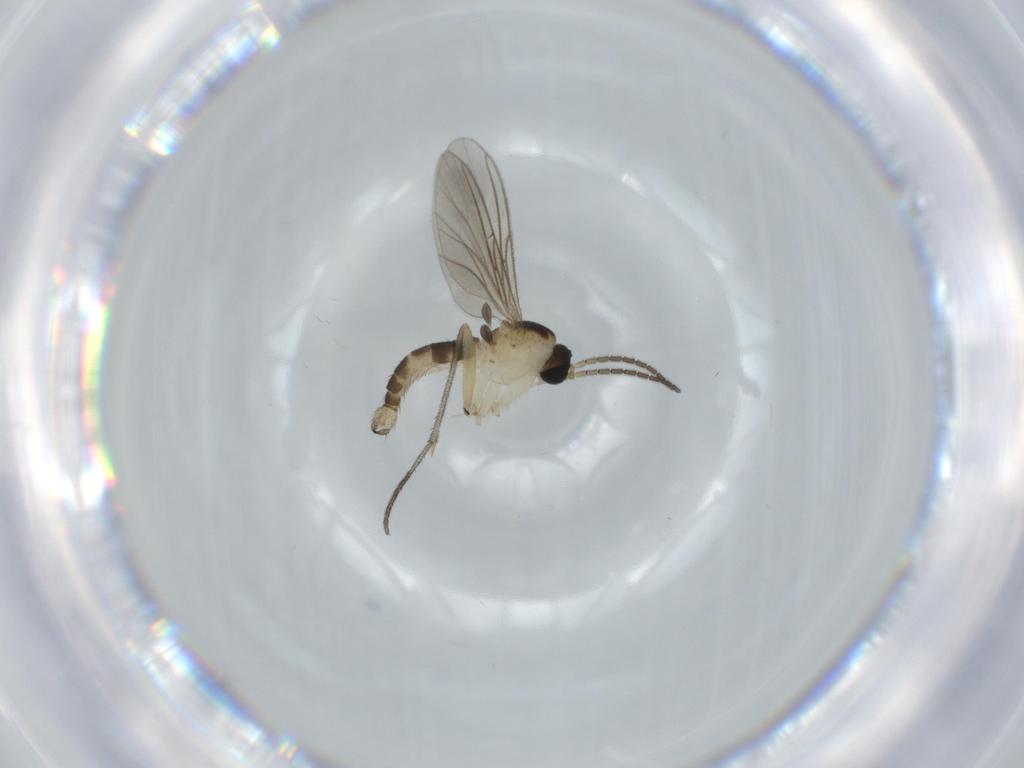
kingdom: Animalia
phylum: Arthropoda
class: Insecta
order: Diptera
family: Sciaridae
